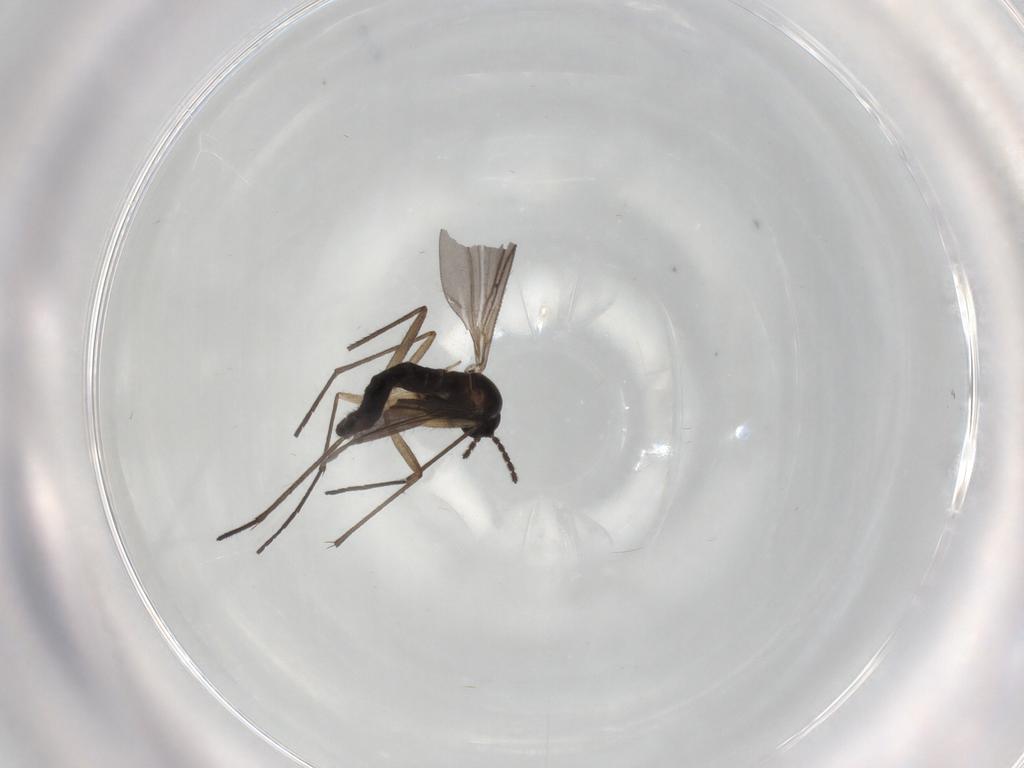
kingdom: Animalia
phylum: Arthropoda
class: Insecta
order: Diptera
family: Sciaridae
